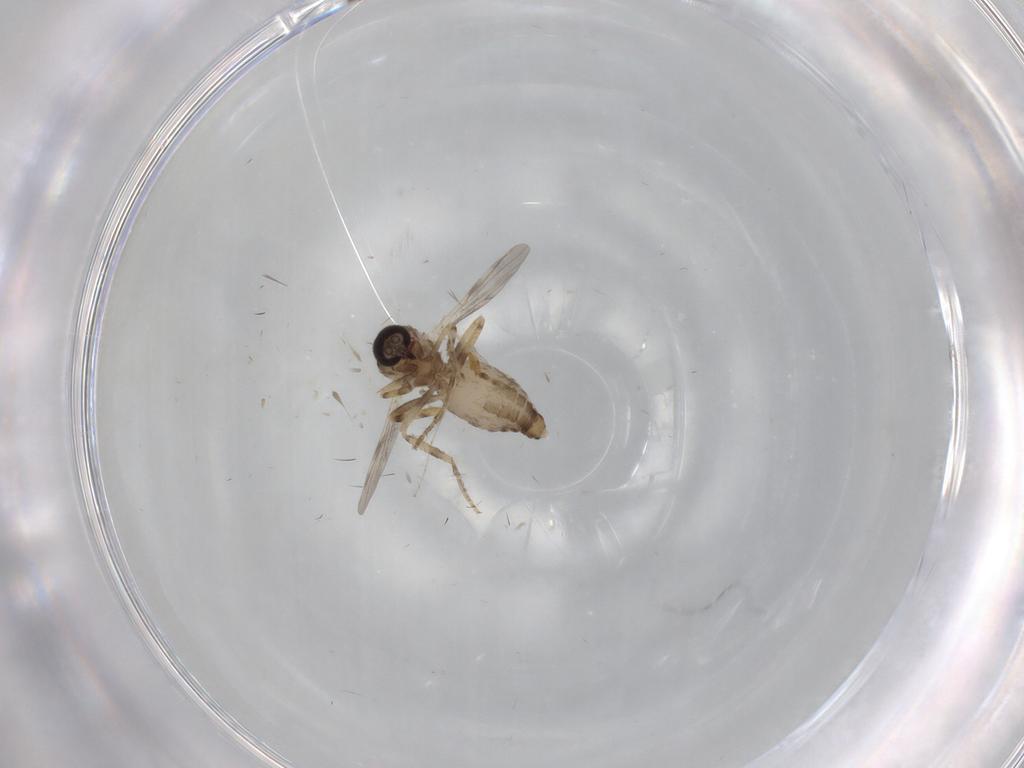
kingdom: Animalia
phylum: Arthropoda
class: Insecta
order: Diptera
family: Ceratopogonidae
